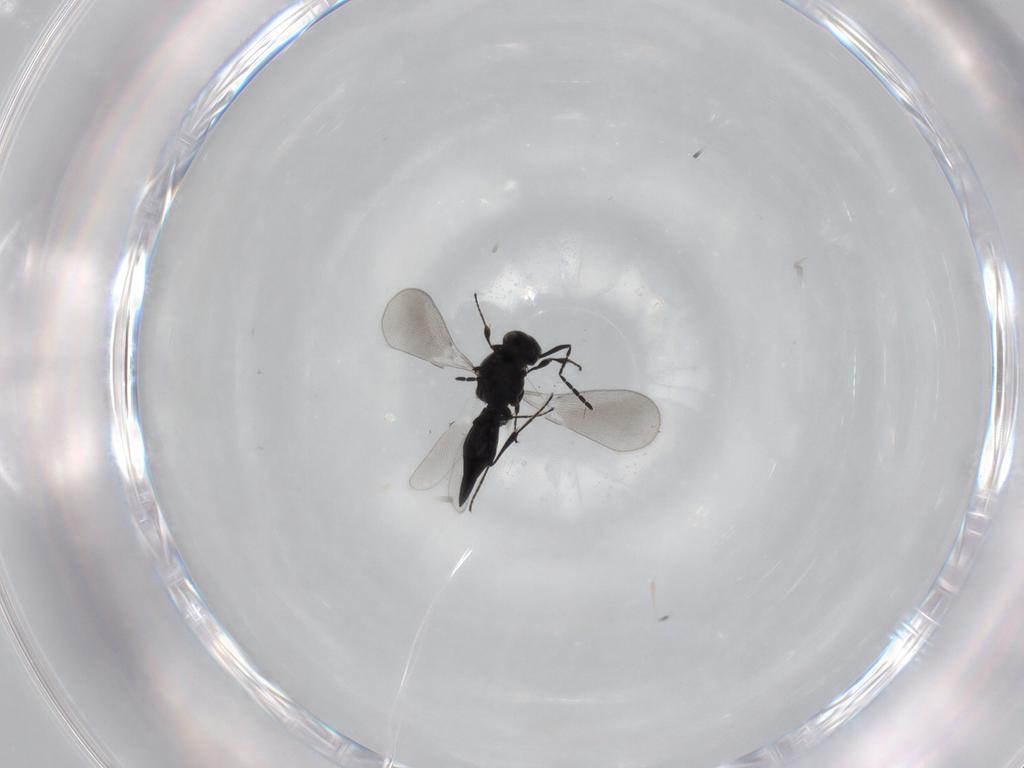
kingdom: Animalia
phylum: Arthropoda
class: Insecta
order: Diptera
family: Mythicomyiidae
